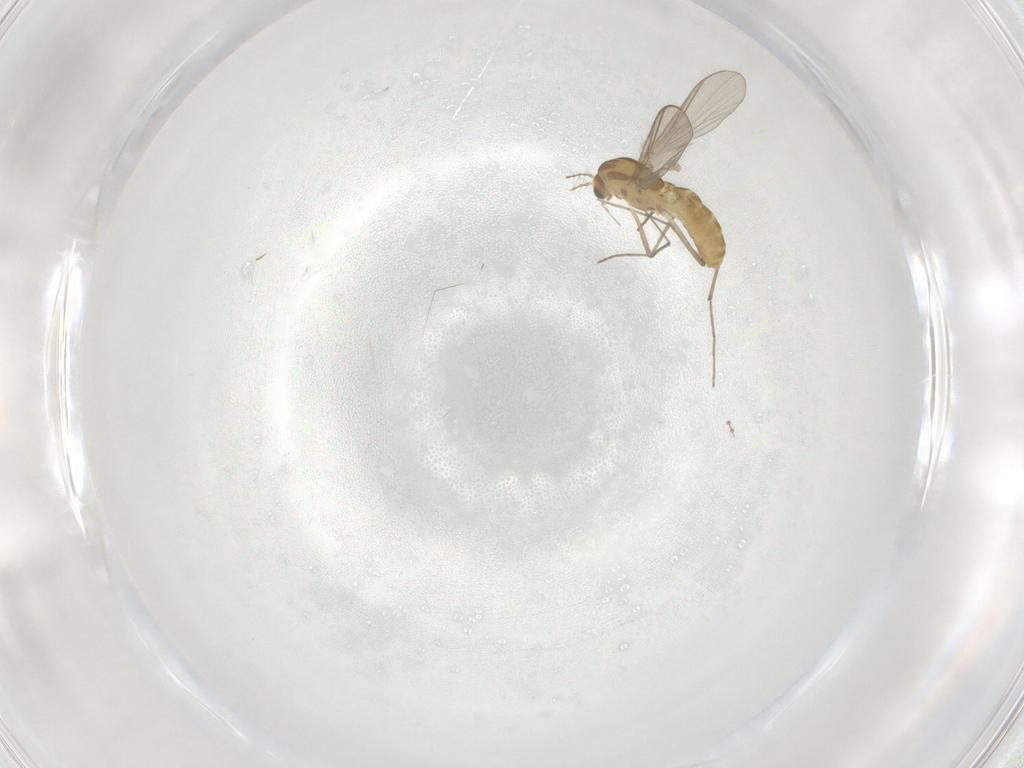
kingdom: Animalia
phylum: Arthropoda
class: Insecta
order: Diptera
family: Cecidomyiidae
